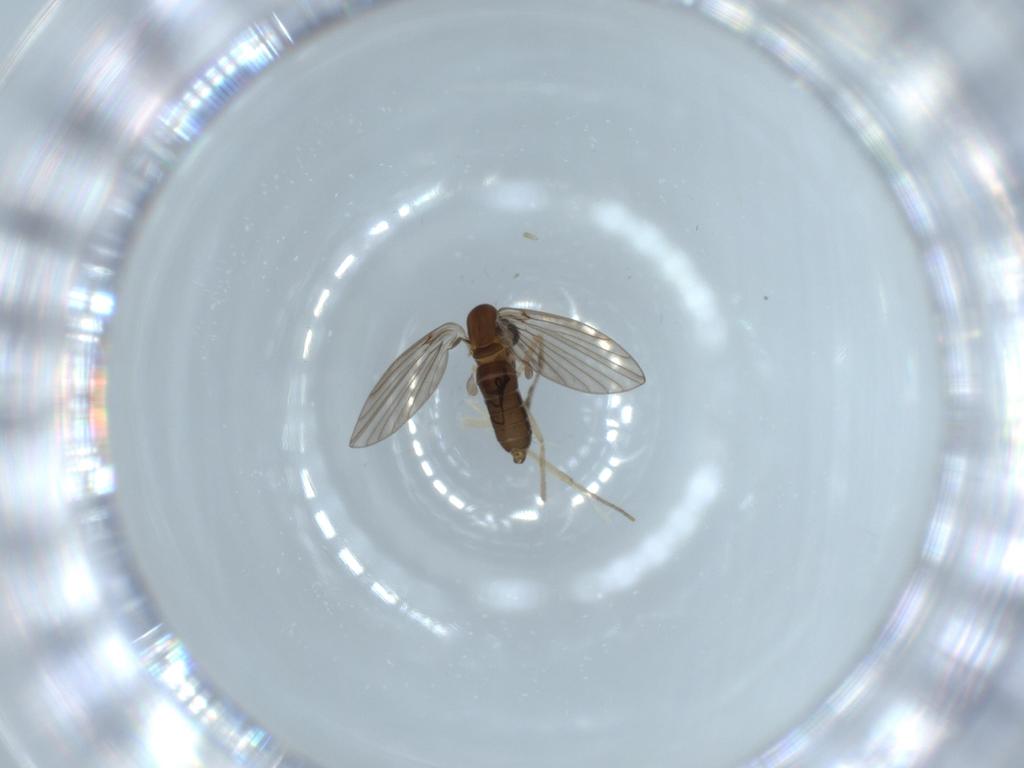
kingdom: Animalia
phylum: Arthropoda
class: Insecta
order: Diptera
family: Psychodidae
